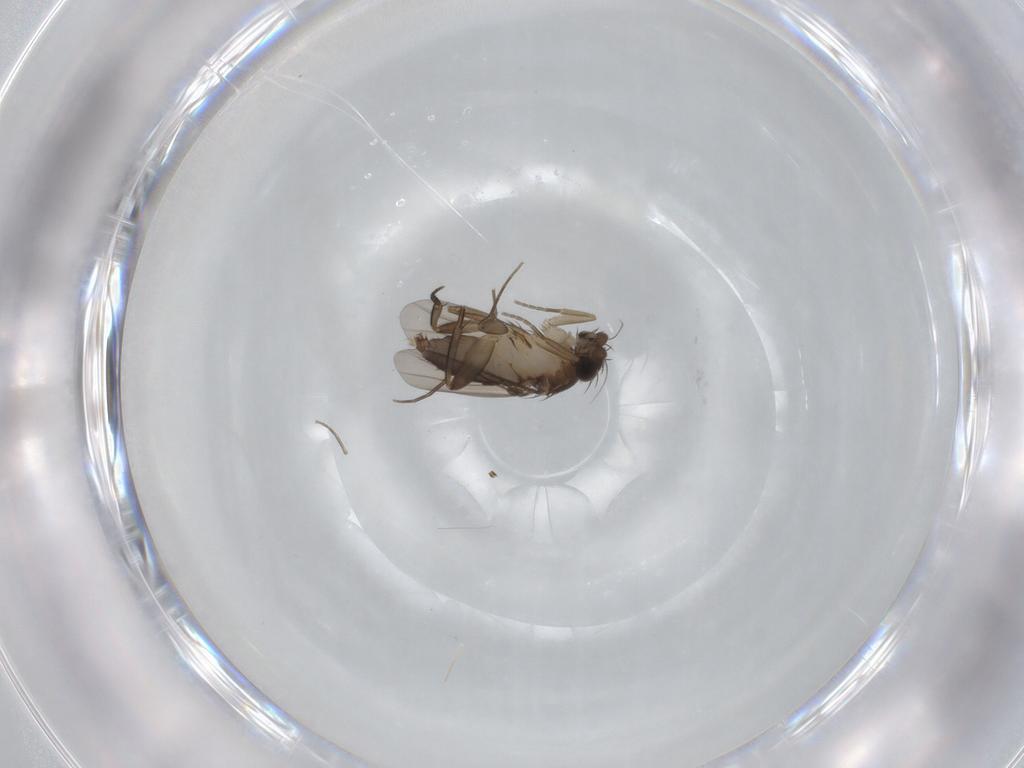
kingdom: Animalia
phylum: Arthropoda
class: Insecta
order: Diptera
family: Phoridae
